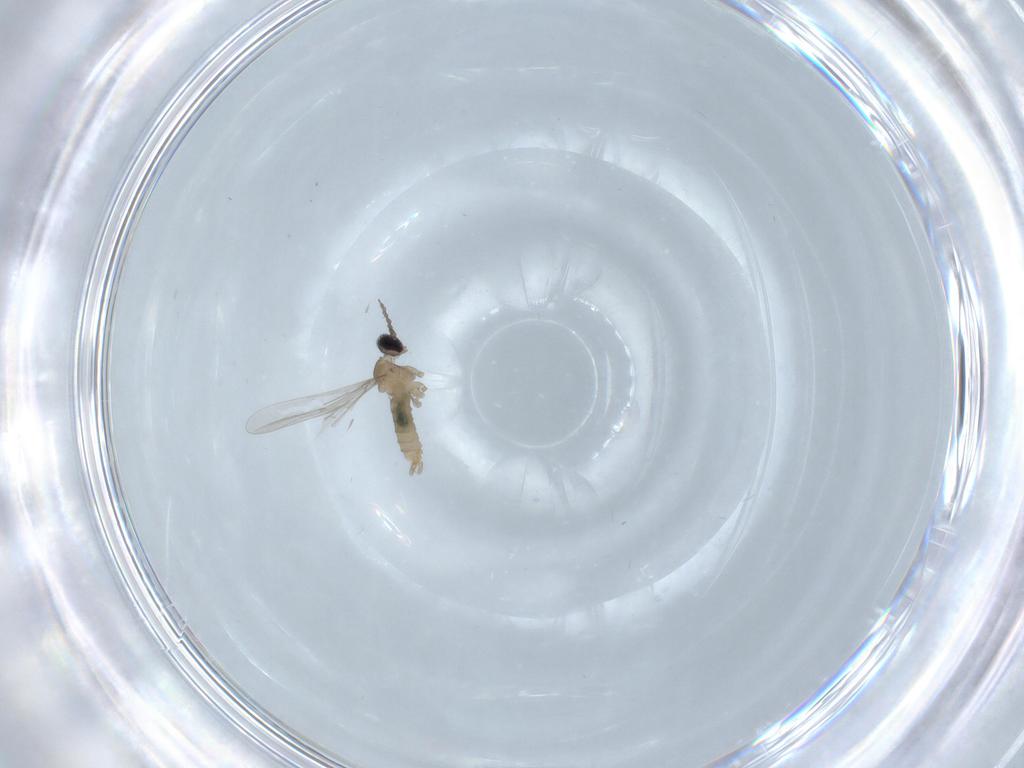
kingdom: Animalia
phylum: Arthropoda
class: Insecta
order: Diptera
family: Cecidomyiidae
